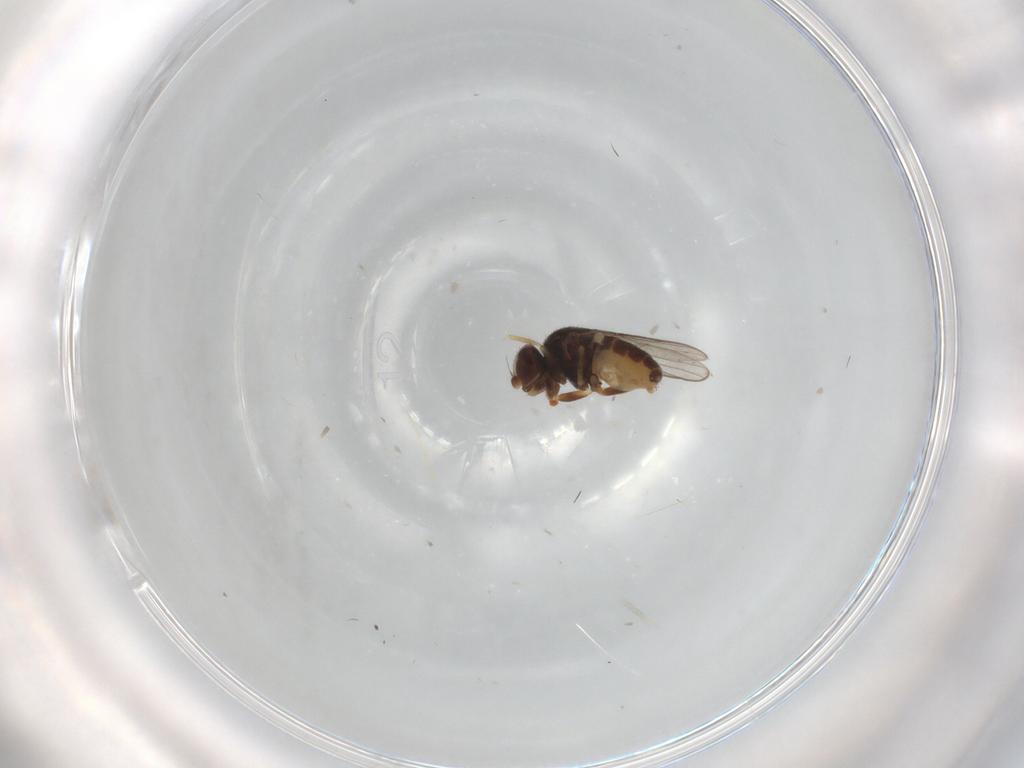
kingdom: Animalia
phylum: Arthropoda
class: Insecta
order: Diptera
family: Chloropidae
